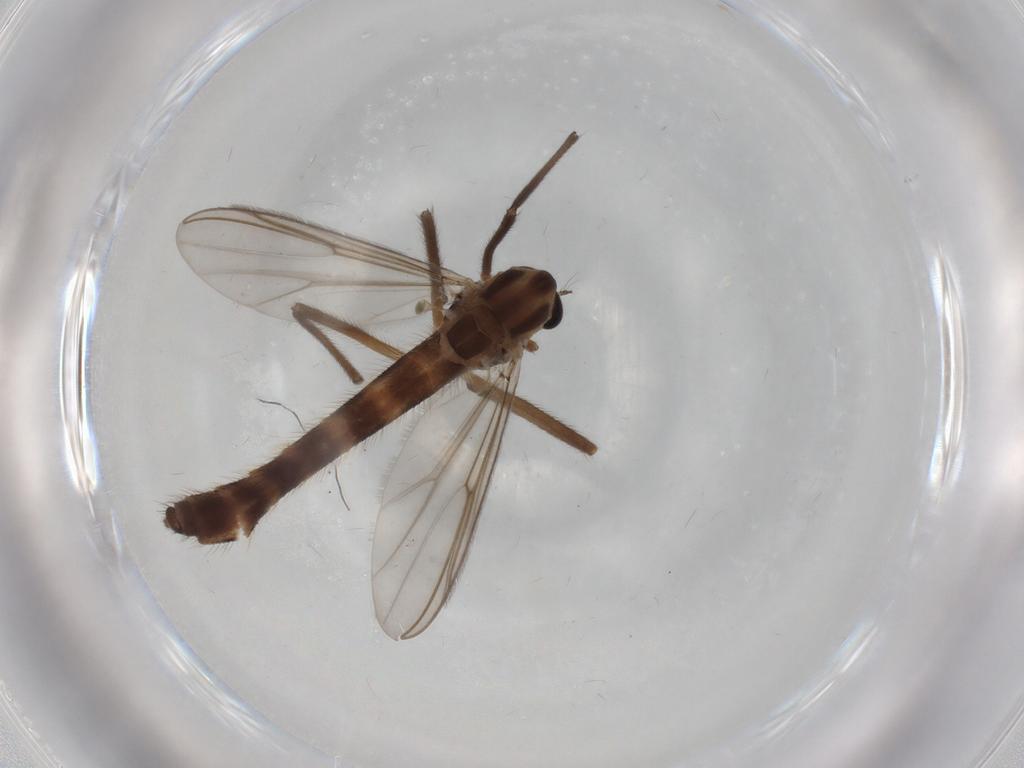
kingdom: Animalia
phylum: Arthropoda
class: Insecta
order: Diptera
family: Chironomidae
